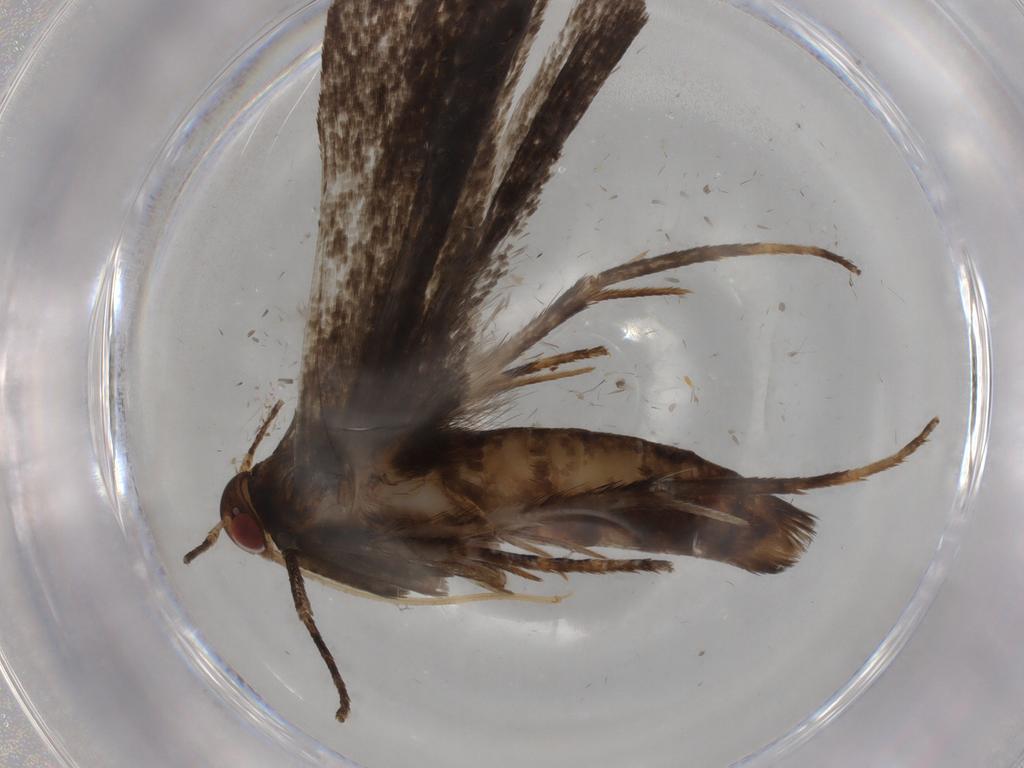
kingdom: Animalia
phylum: Arthropoda
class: Insecta
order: Lepidoptera
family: Gelechiidae
